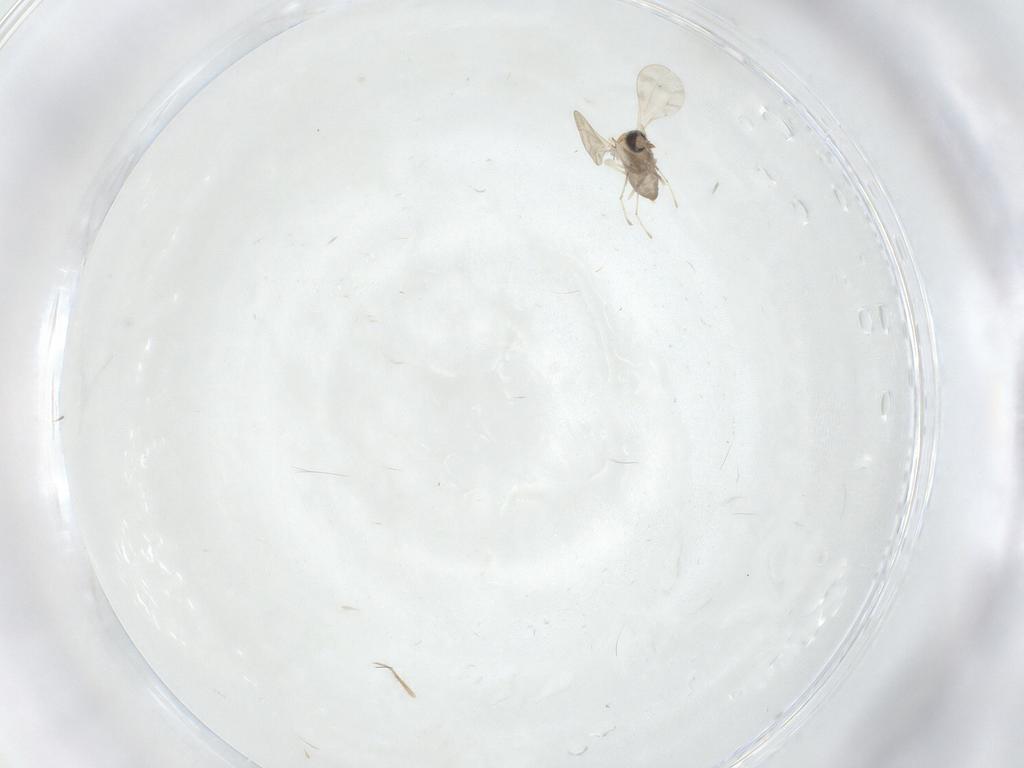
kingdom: Animalia
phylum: Arthropoda
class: Insecta
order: Diptera
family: Cecidomyiidae
